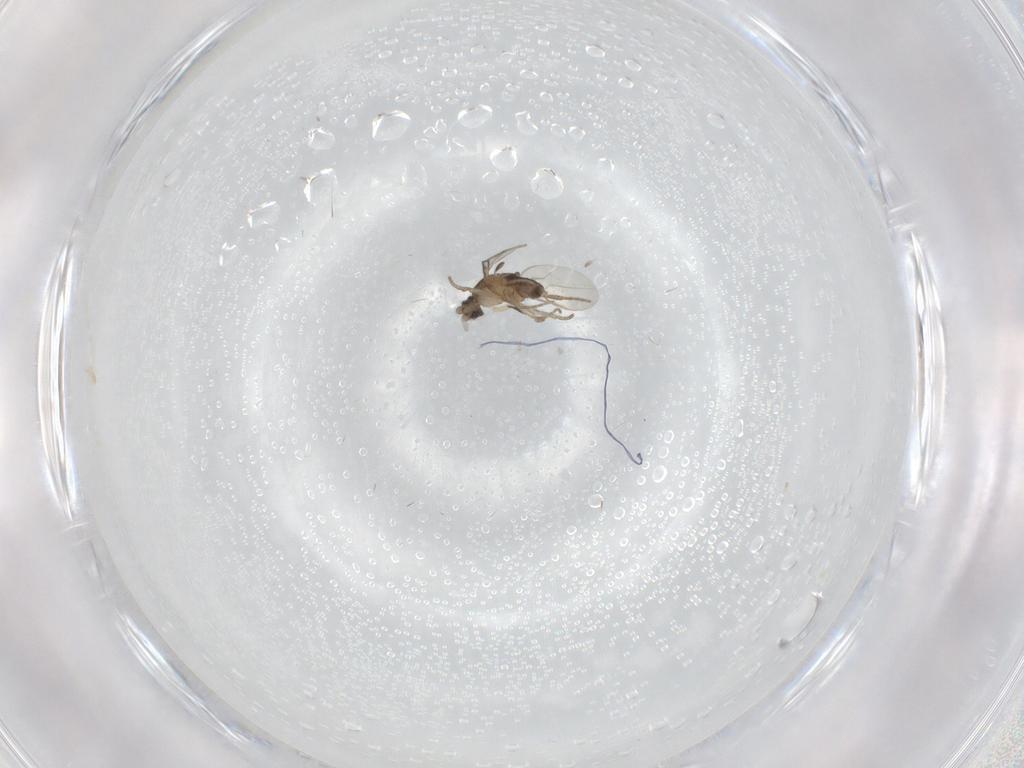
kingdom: Animalia
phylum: Arthropoda
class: Insecta
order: Diptera
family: Phoridae
